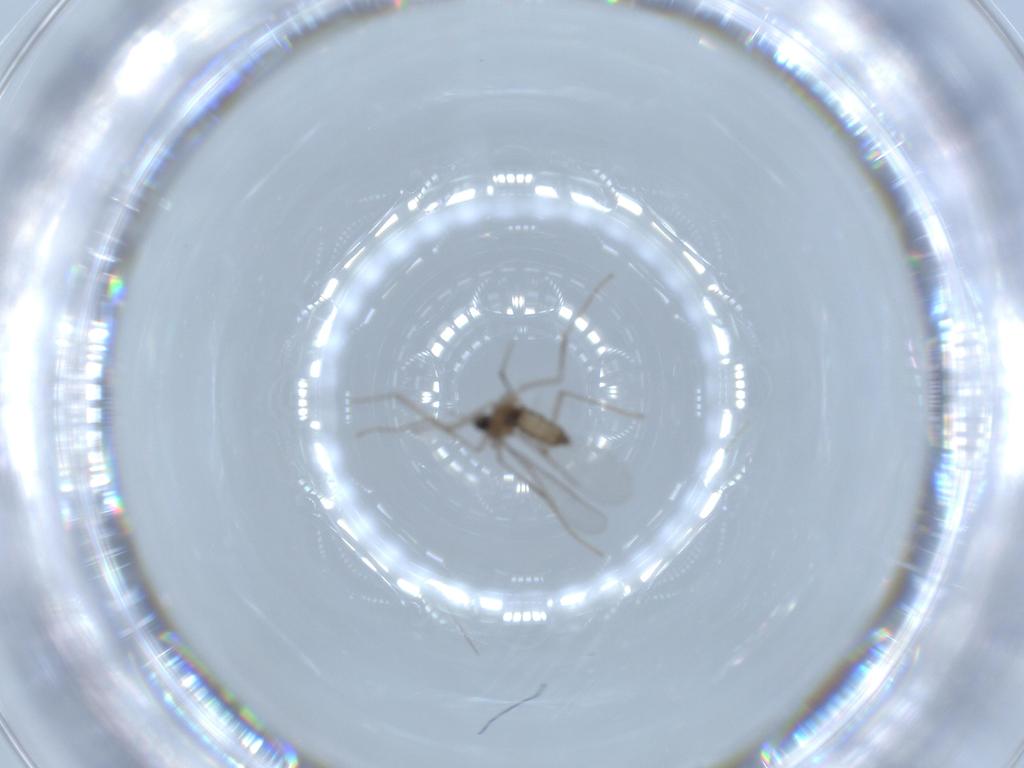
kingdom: Animalia
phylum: Arthropoda
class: Insecta
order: Diptera
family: Chironomidae
